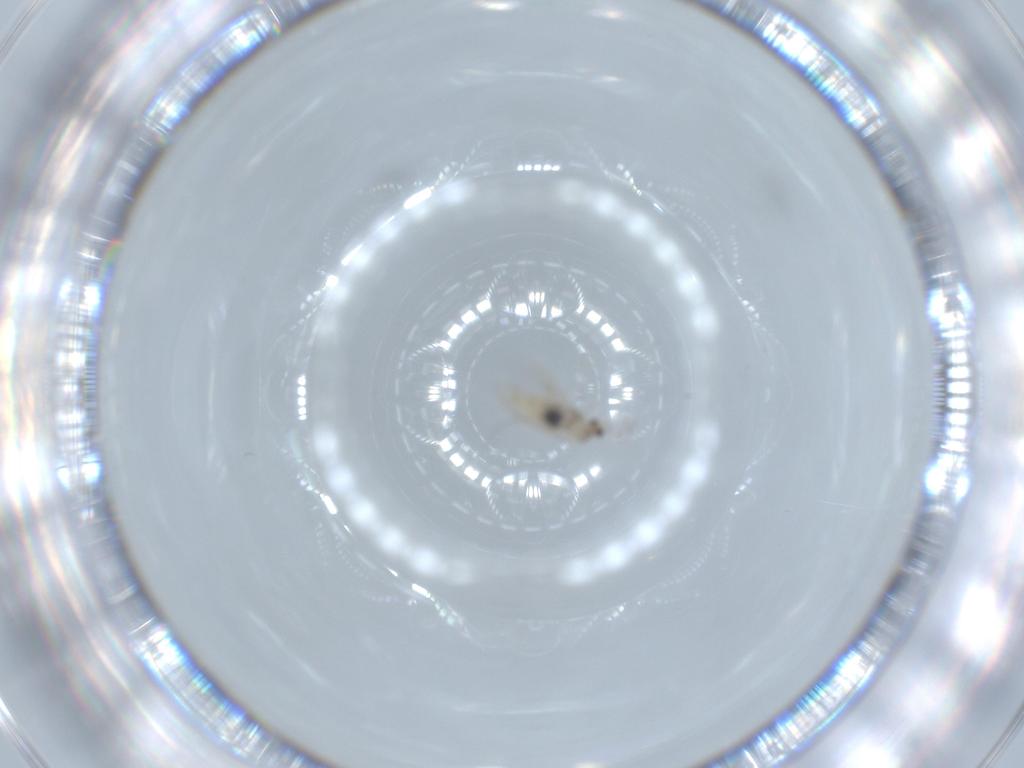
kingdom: Animalia
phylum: Arthropoda
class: Insecta
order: Diptera
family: Cecidomyiidae
